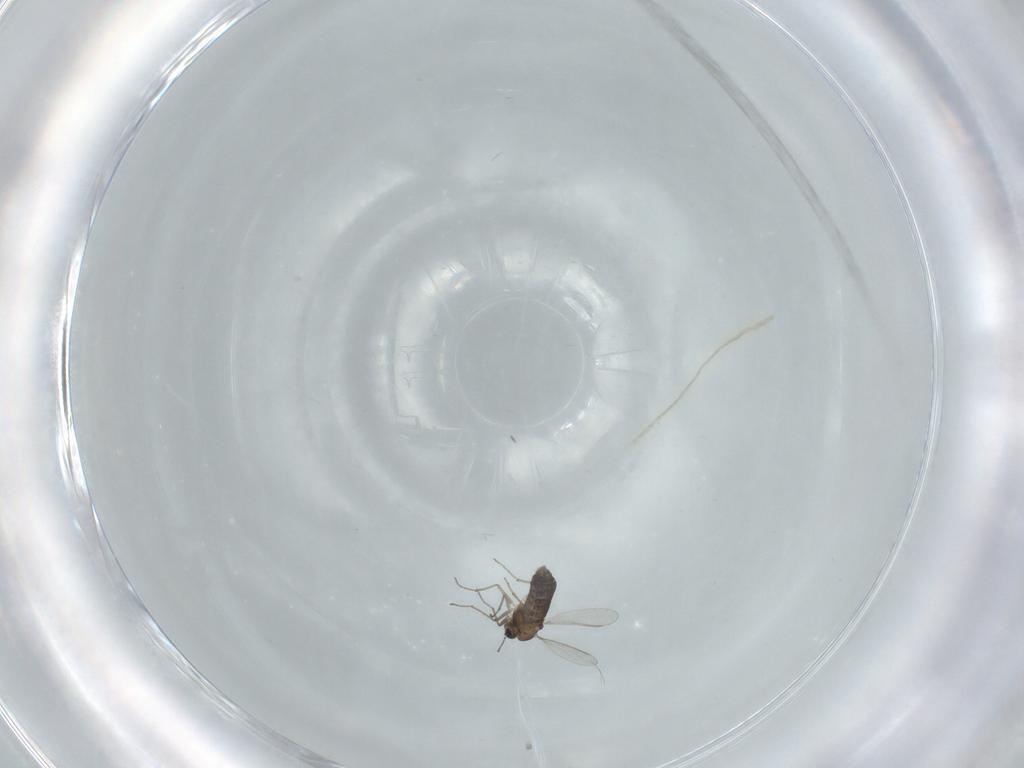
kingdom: Animalia
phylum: Arthropoda
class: Insecta
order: Diptera
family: Chironomidae
